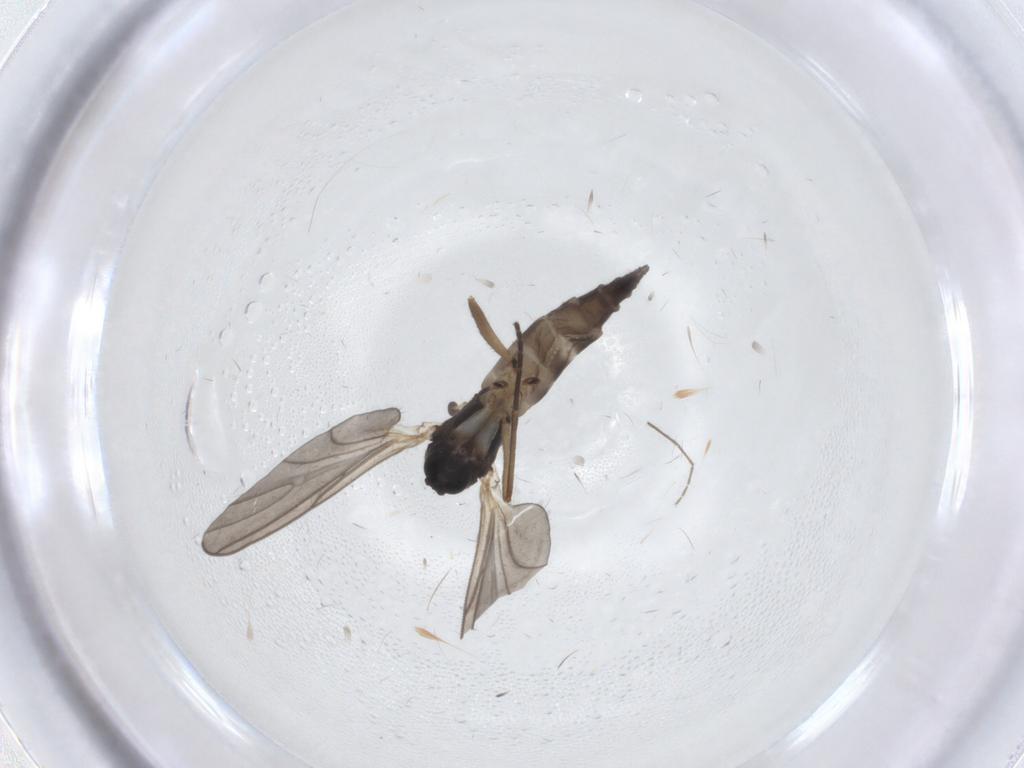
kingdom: Animalia
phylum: Arthropoda
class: Insecta
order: Diptera
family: Sciaridae
